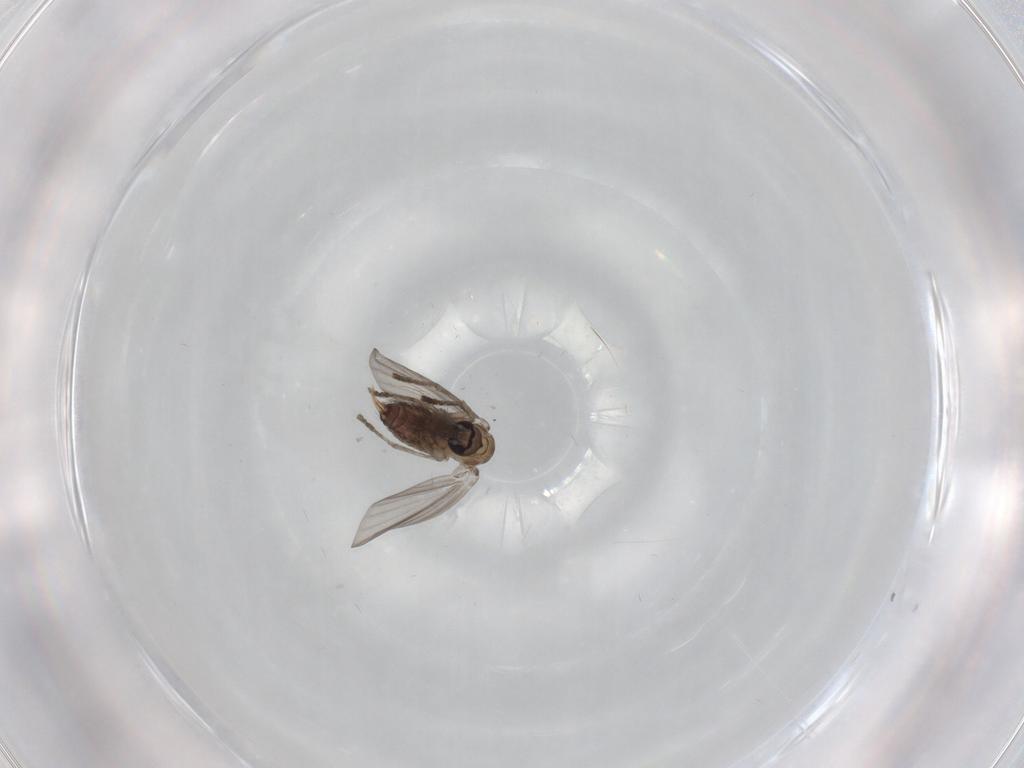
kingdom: Animalia
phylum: Arthropoda
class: Insecta
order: Diptera
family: Psychodidae
